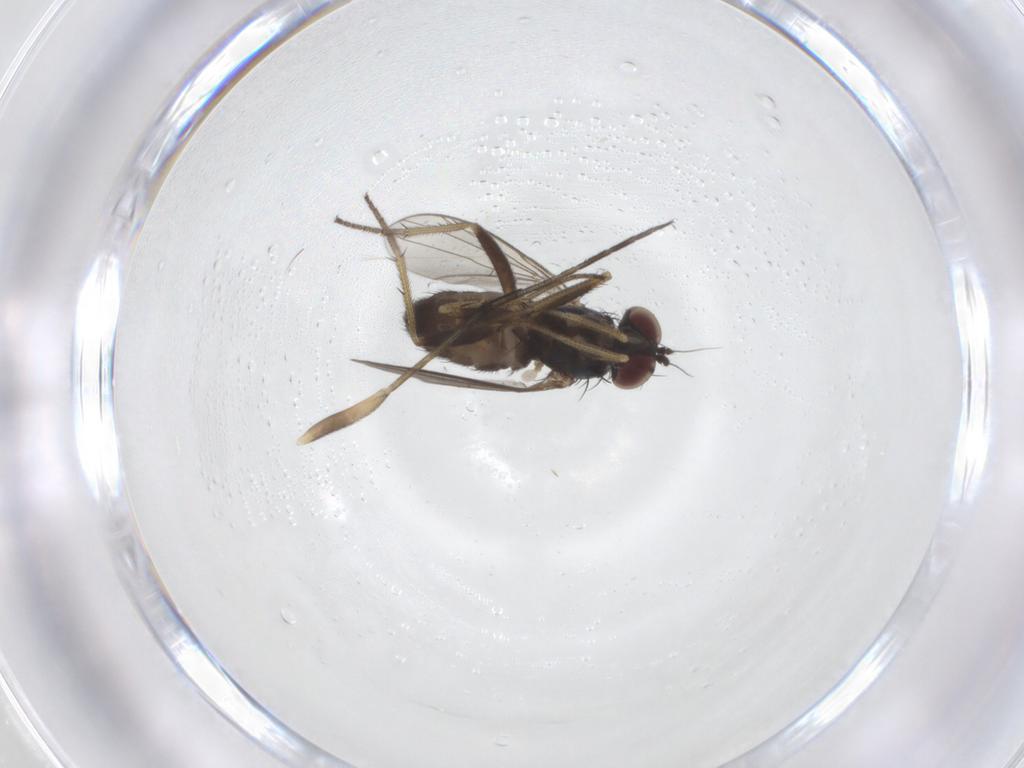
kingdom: Animalia
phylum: Arthropoda
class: Insecta
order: Diptera
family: Keroplatidae
